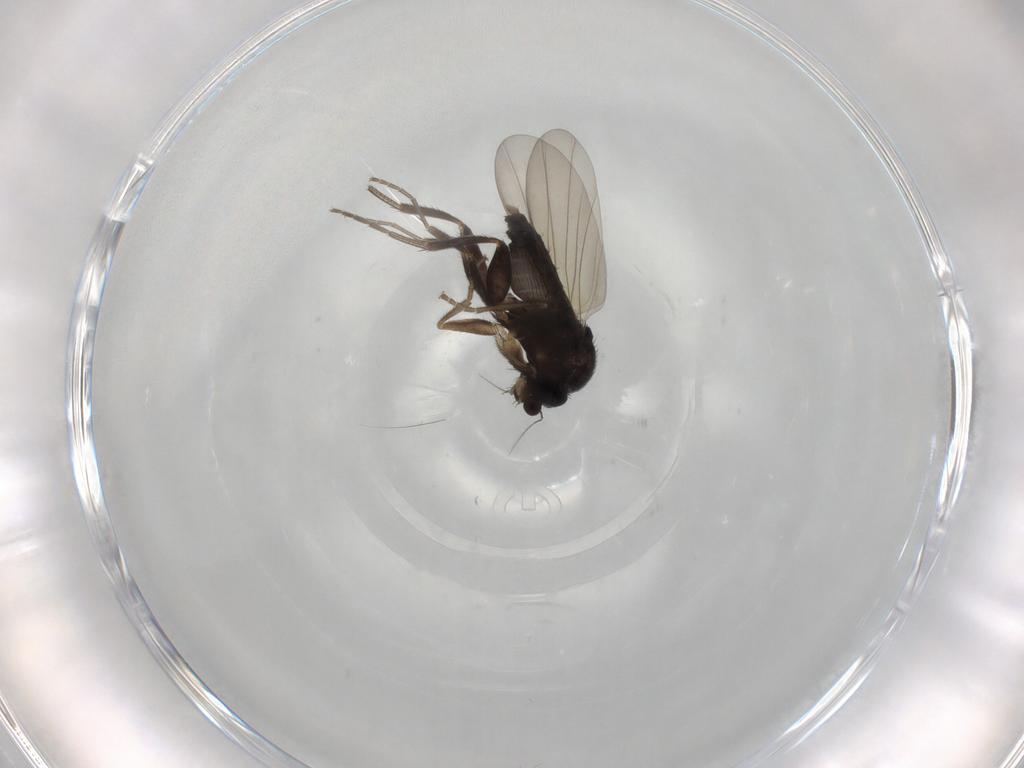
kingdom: Animalia
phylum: Arthropoda
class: Insecta
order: Diptera
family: Phoridae
